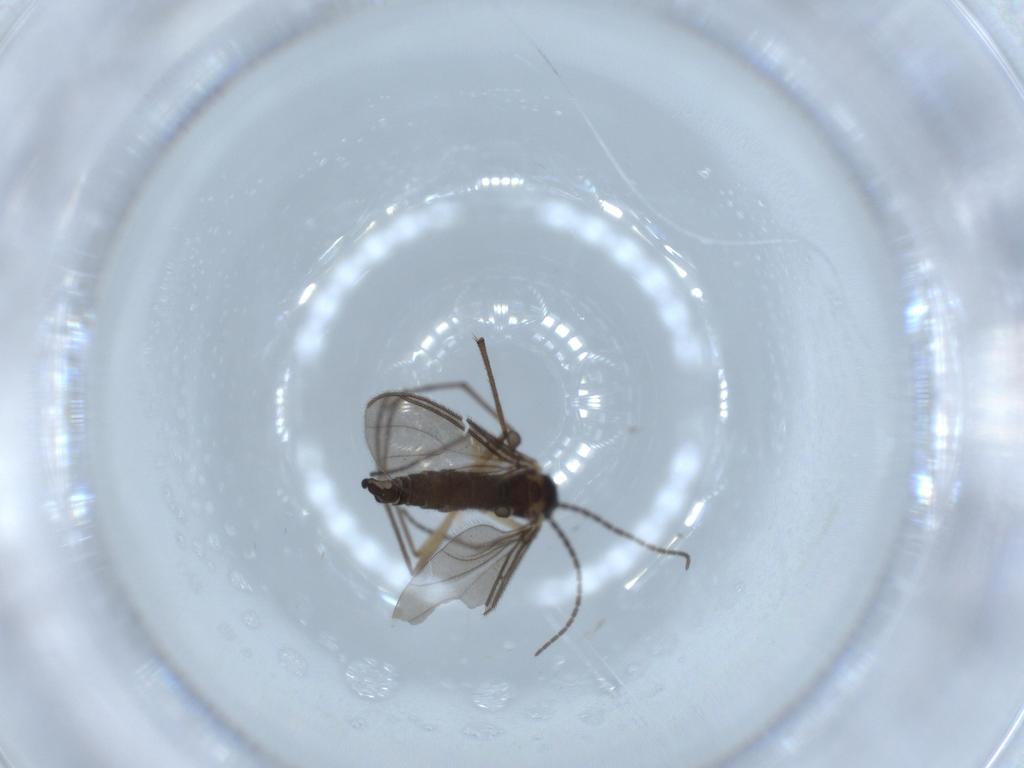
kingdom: Animalia
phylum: Arthropoda
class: Insecta
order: Diptera
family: Sciaridae
